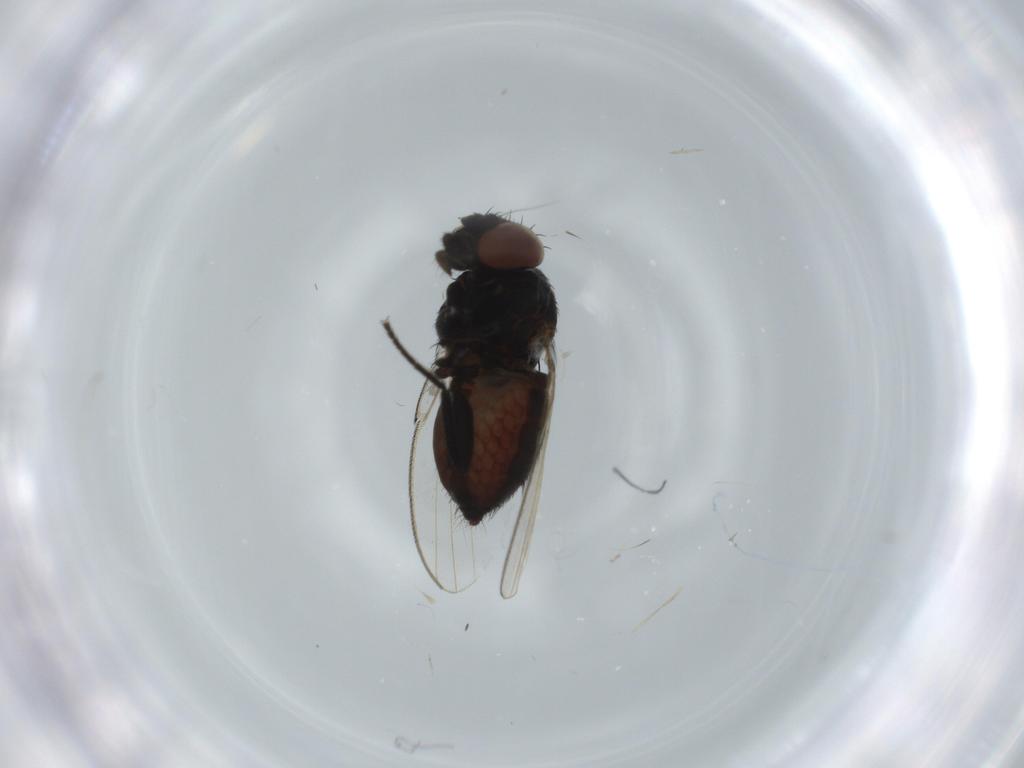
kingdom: Animalia
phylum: Arthropoda
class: Insecta
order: Diptera
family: Milichiidae
